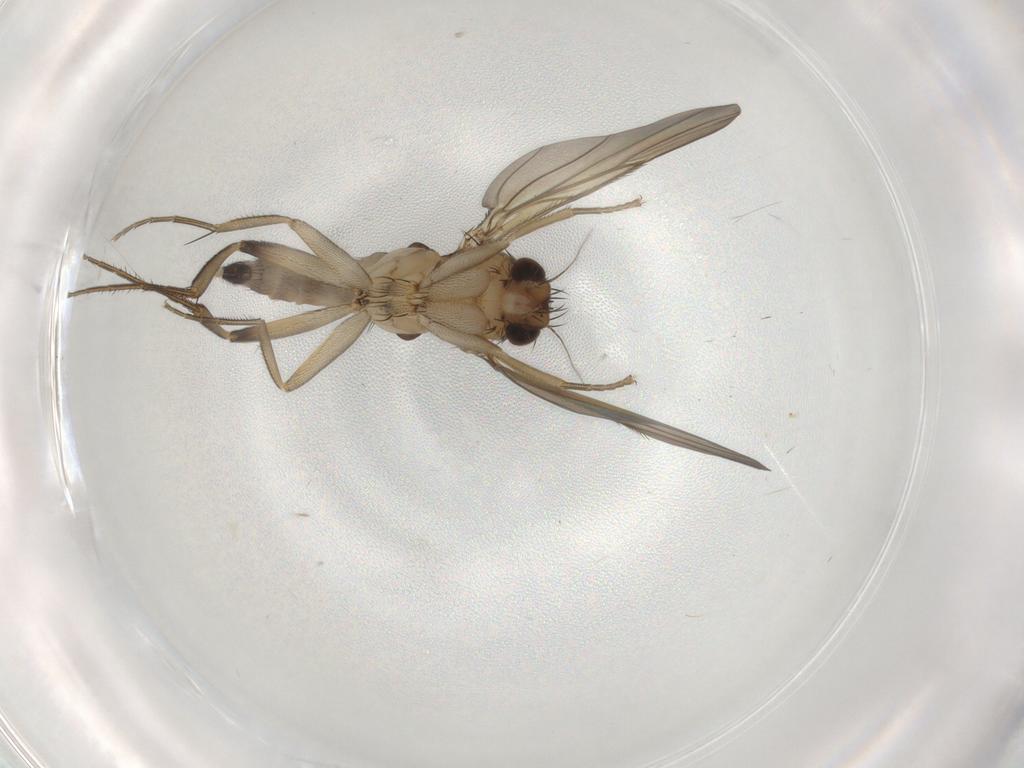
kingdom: Animalia
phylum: Arthropoda
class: Insecta
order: Diptera
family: Phoridae
